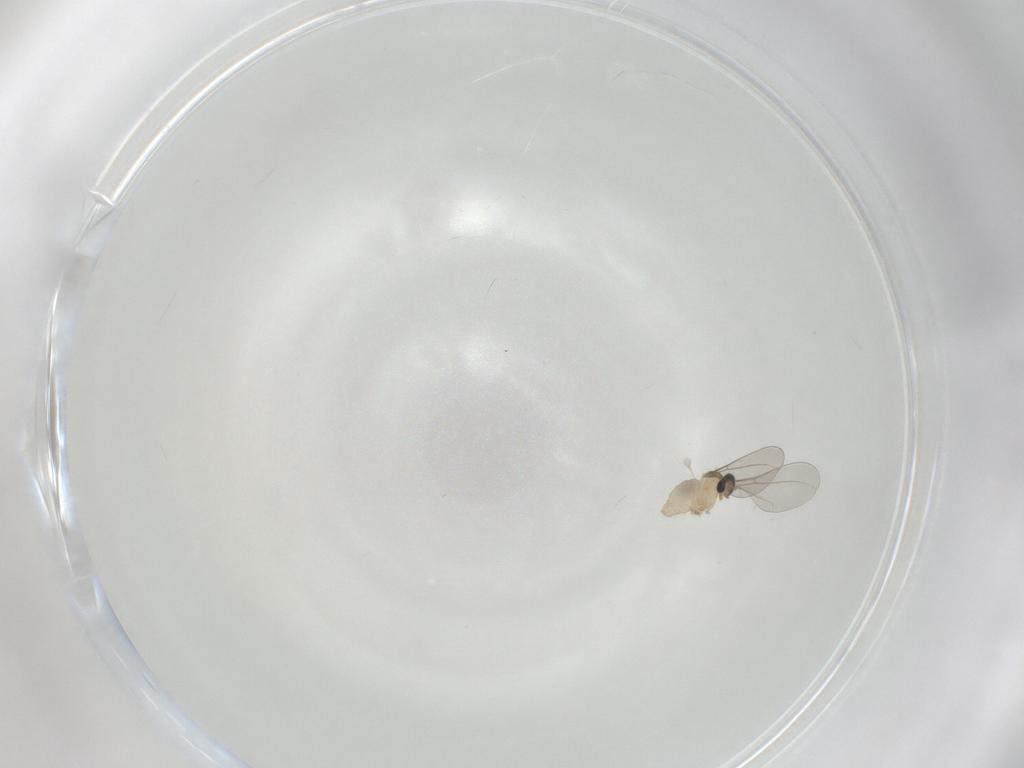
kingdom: Animalia
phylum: Arthropoda
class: Insecta
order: Diptera
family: Cecidomyiidae
